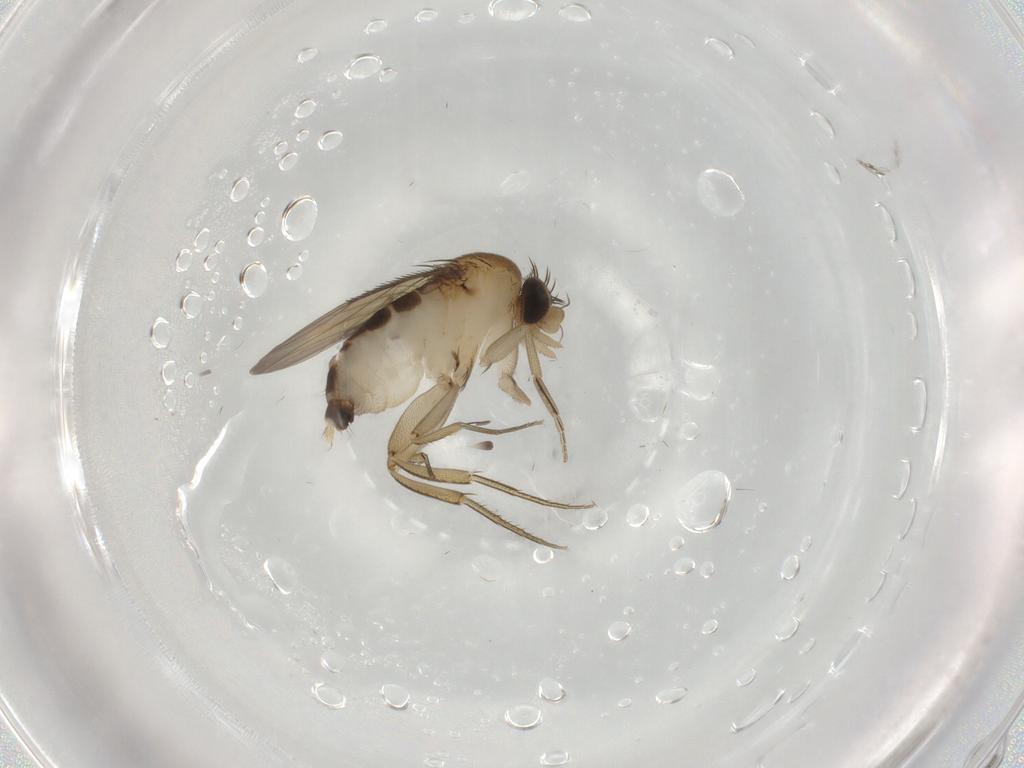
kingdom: Animalia
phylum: Arthropoda
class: Insecta
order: Diptera
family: Phoridae
